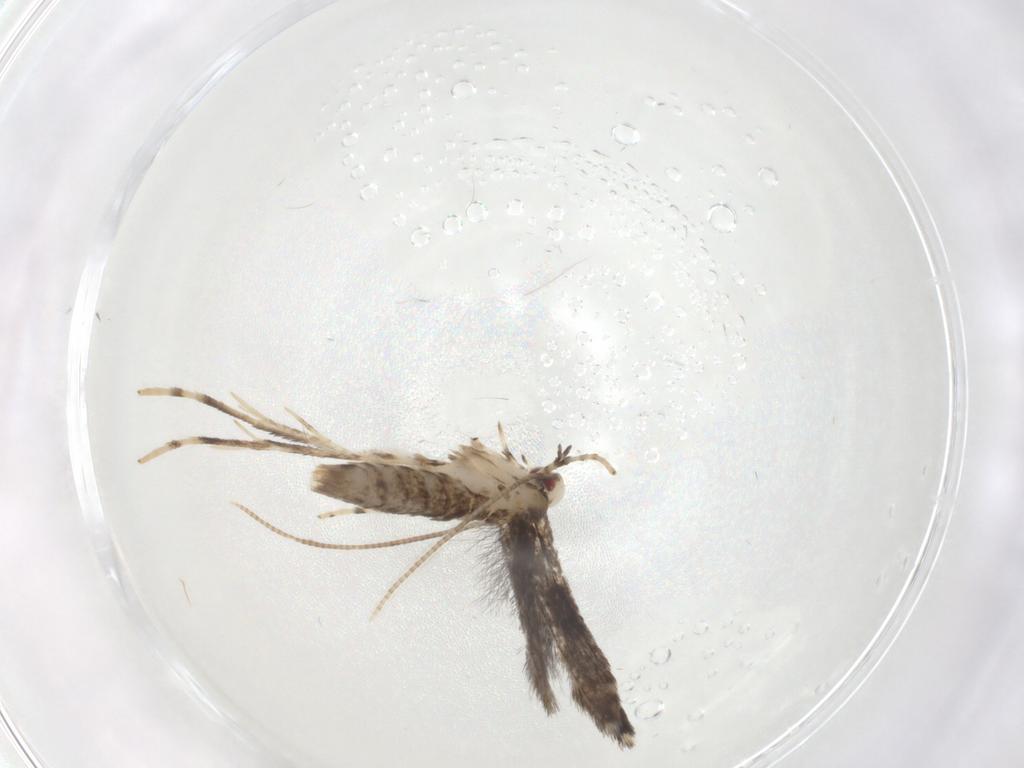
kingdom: Animalia
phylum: Arthropoda
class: Insecta
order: Lepidoptera
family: Gracillariidae
